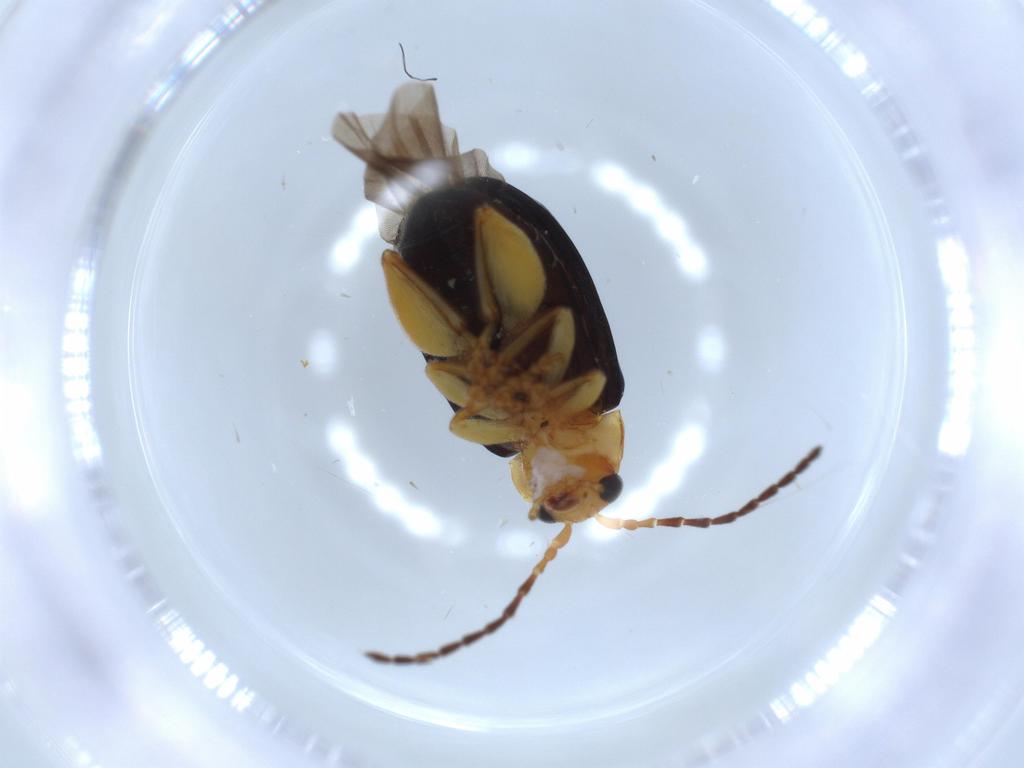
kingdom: Animalia
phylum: Arthropoda
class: Insecta
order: Coleoptera
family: Chrysomelidae
